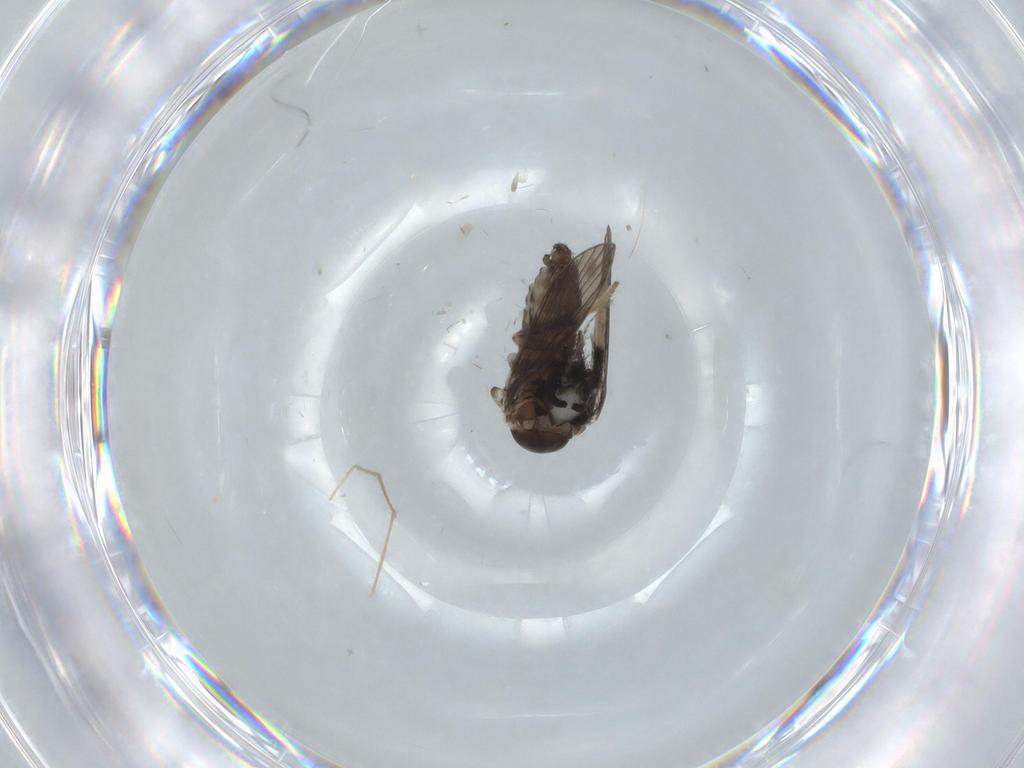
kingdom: Animalia
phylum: Arthropoda
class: Insecta
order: Diptera
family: Psychodidae
